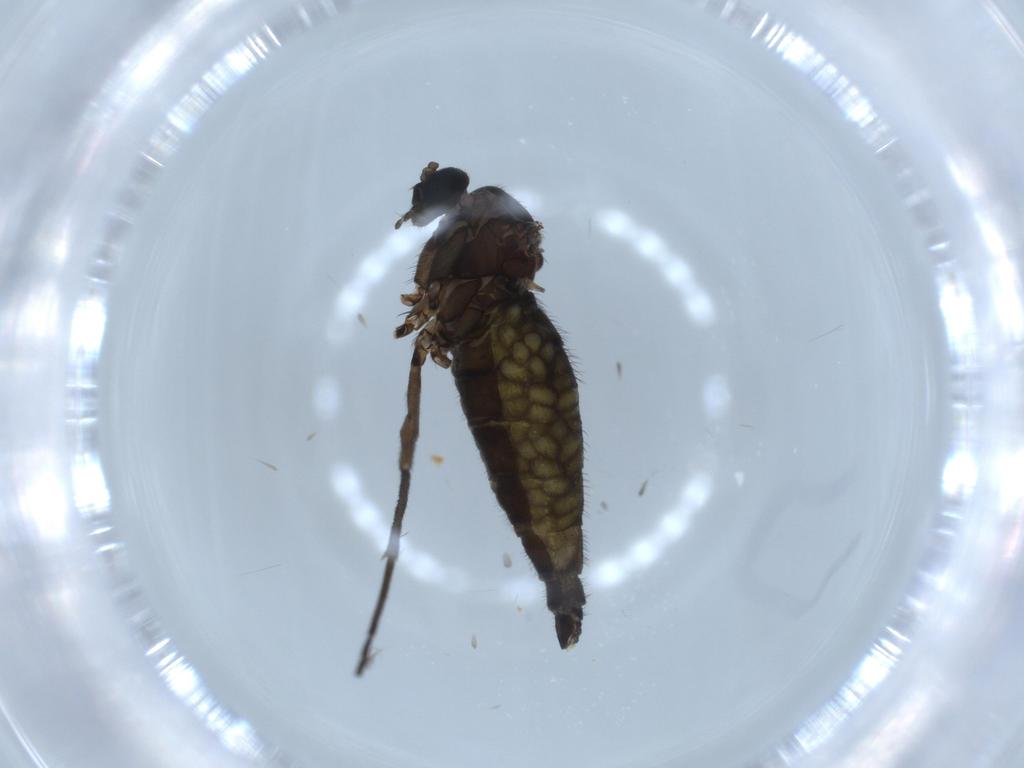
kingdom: Animalia
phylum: Arthropoda
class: Insecta
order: Diptera
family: Sciaridae
